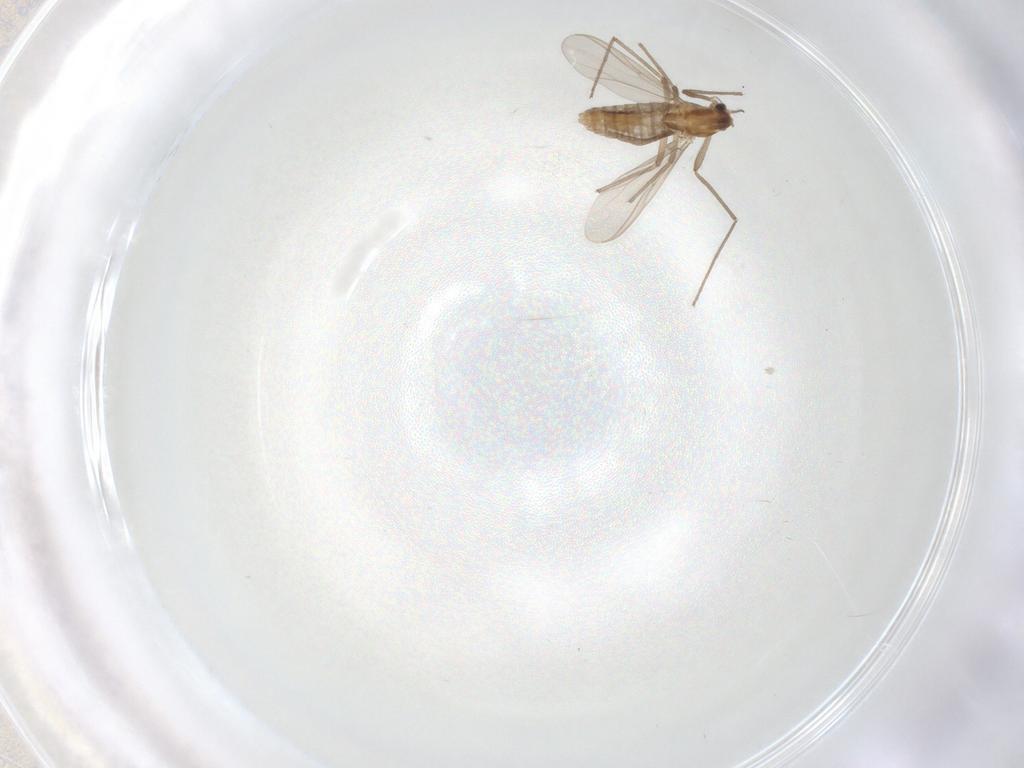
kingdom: Animalia
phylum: Arthropoda
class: Insecta
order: Diptera
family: Chironomidae
